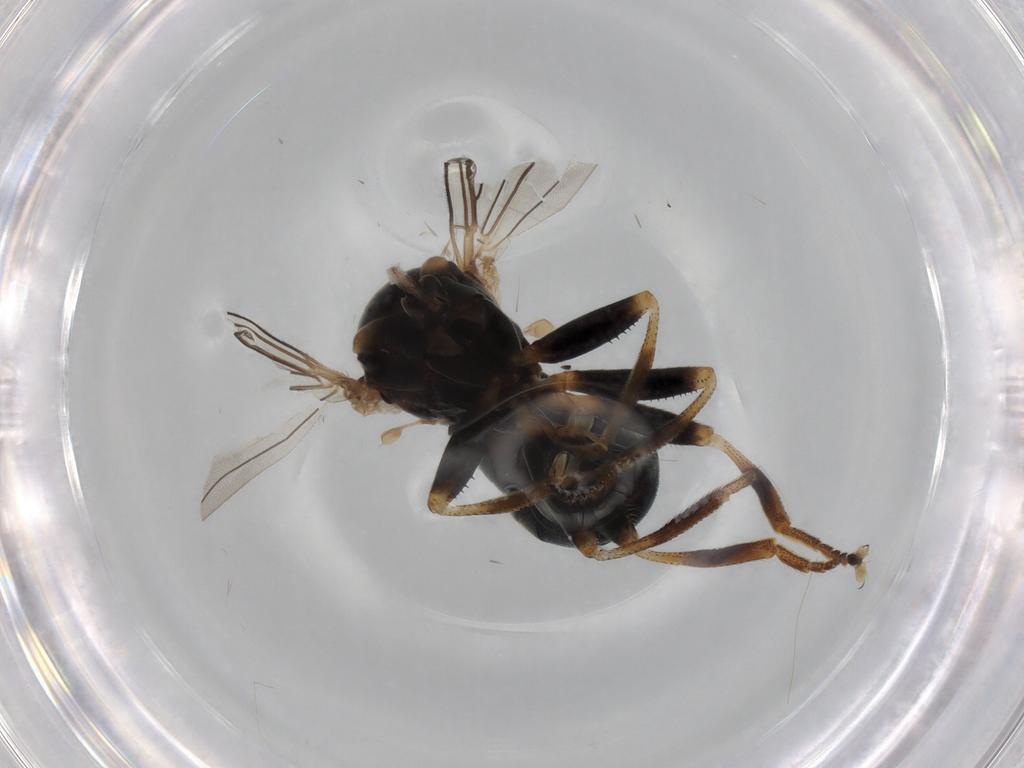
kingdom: Animalia
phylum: Arthropoda
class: Insecta
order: Diptera
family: Pipunculidae
